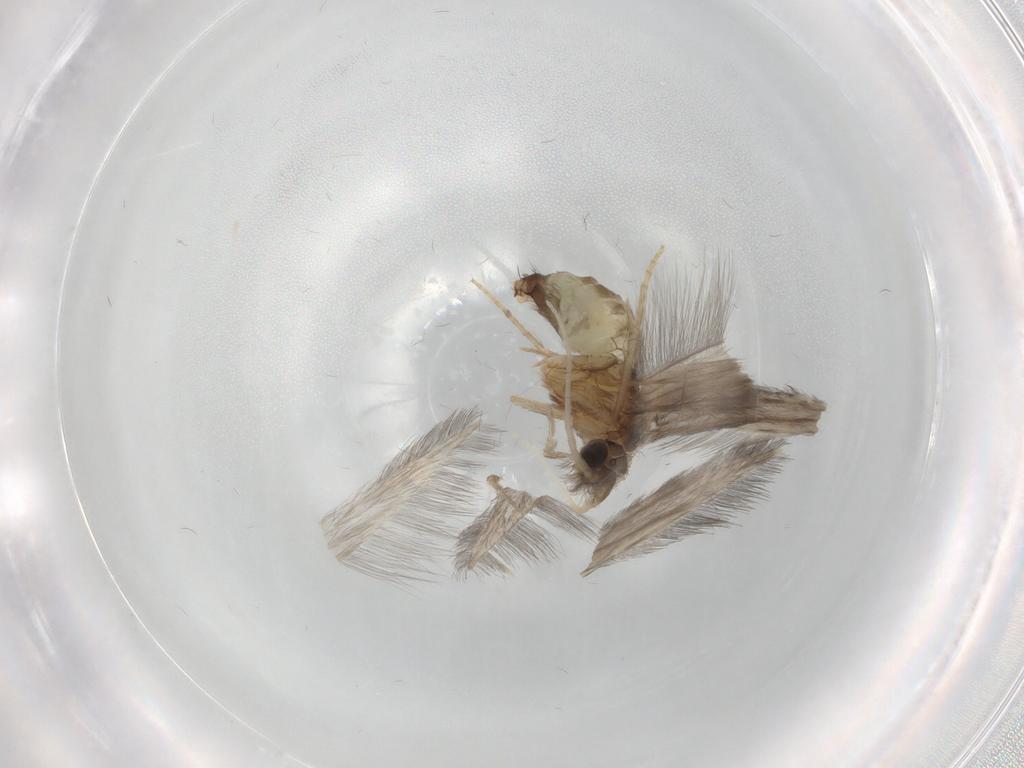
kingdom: Animalia
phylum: Arthropoda
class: Insecta
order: Trichoptera
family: Hydroptilidae
